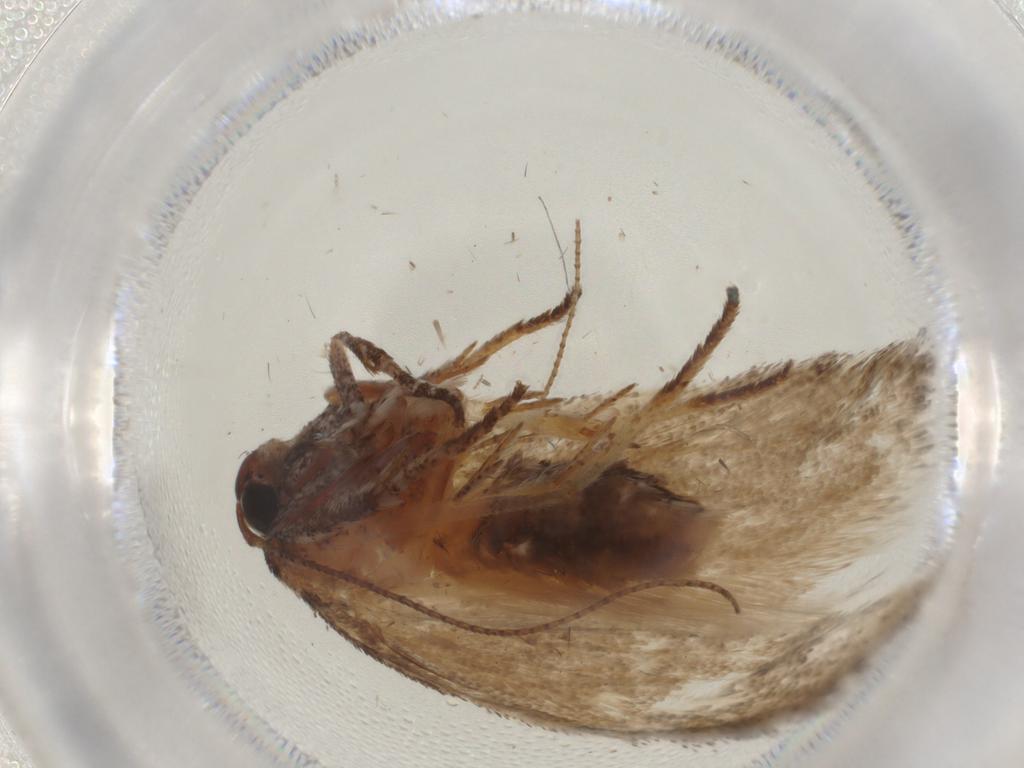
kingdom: Animalia
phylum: Arthropoda
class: Insecta
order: Lepidoptera
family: Cosmopterigidae
